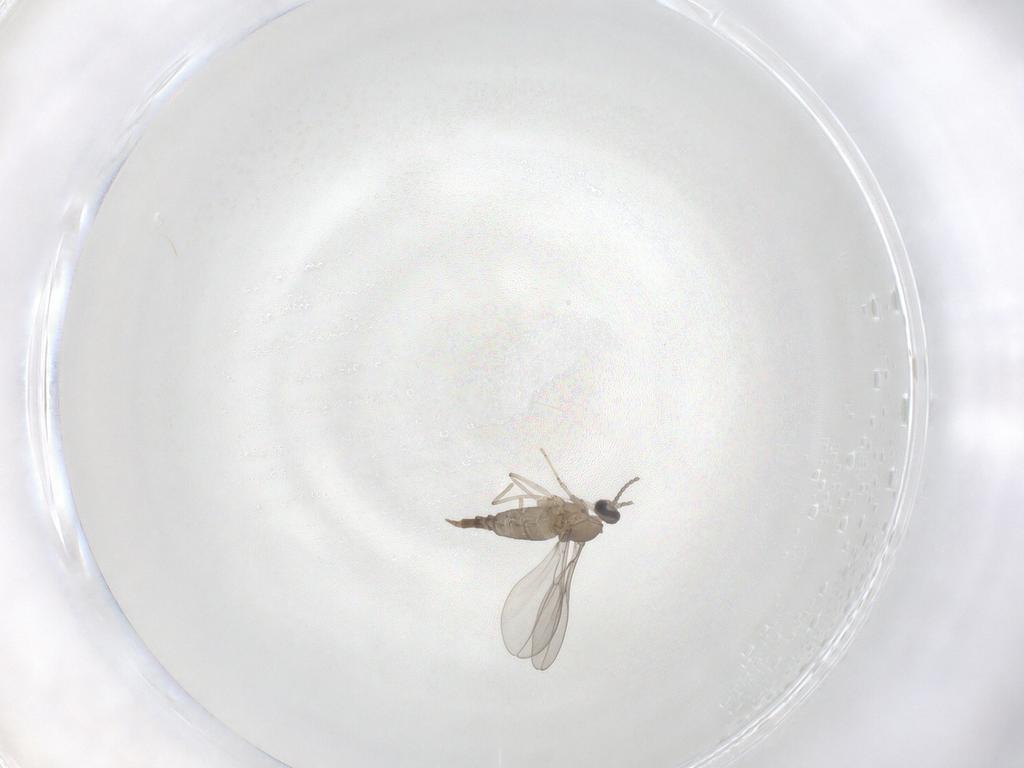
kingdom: Animalia
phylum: Arthropoda
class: Insecta
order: Diptera
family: Cecidomyiidae
